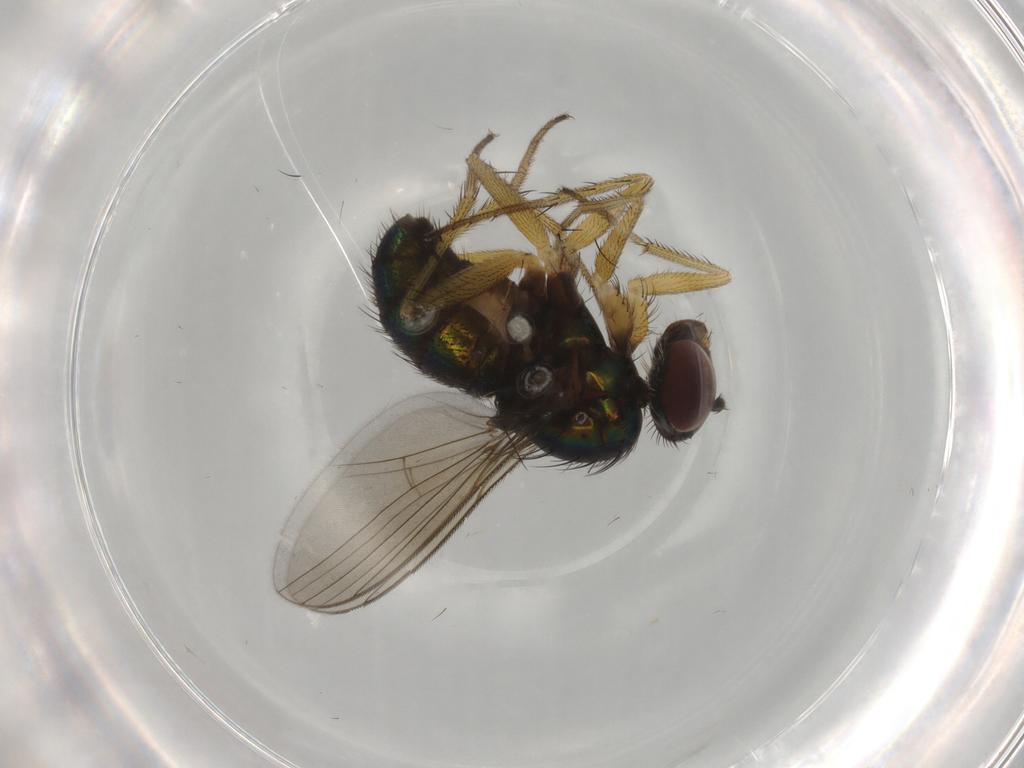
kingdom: Animalia
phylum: Arthropoda
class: Insecta
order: Diptera
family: Dolichopodidae
